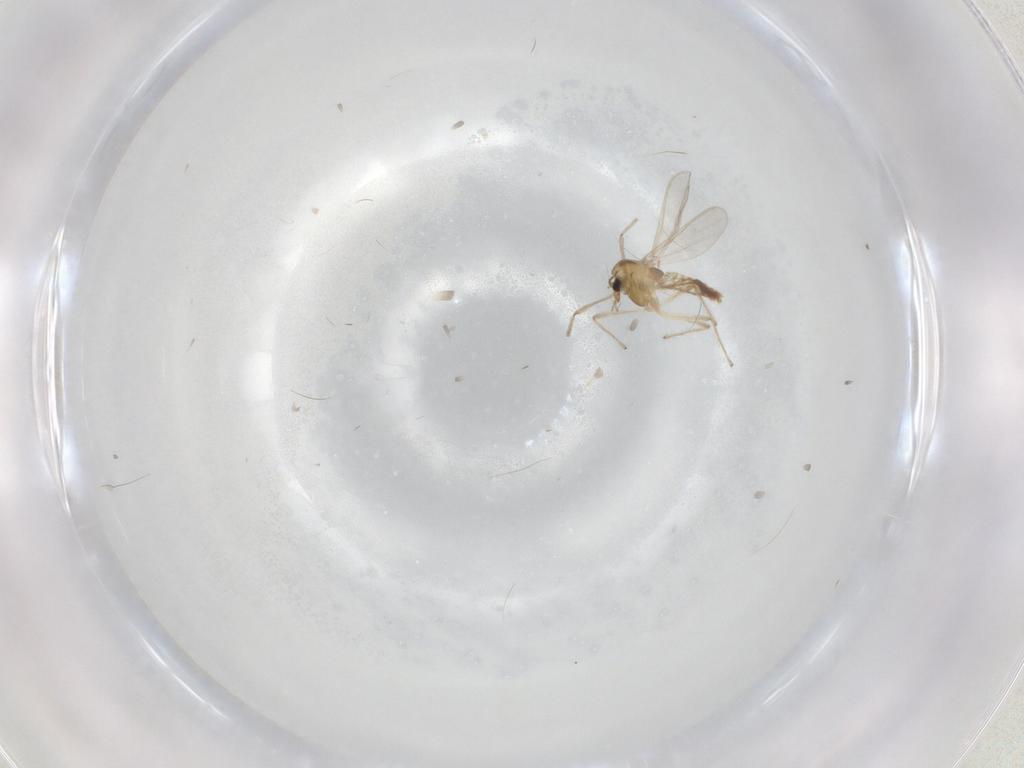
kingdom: Animalia
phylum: Arthropoda
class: Insecta
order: Diptera
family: Chironomidae
